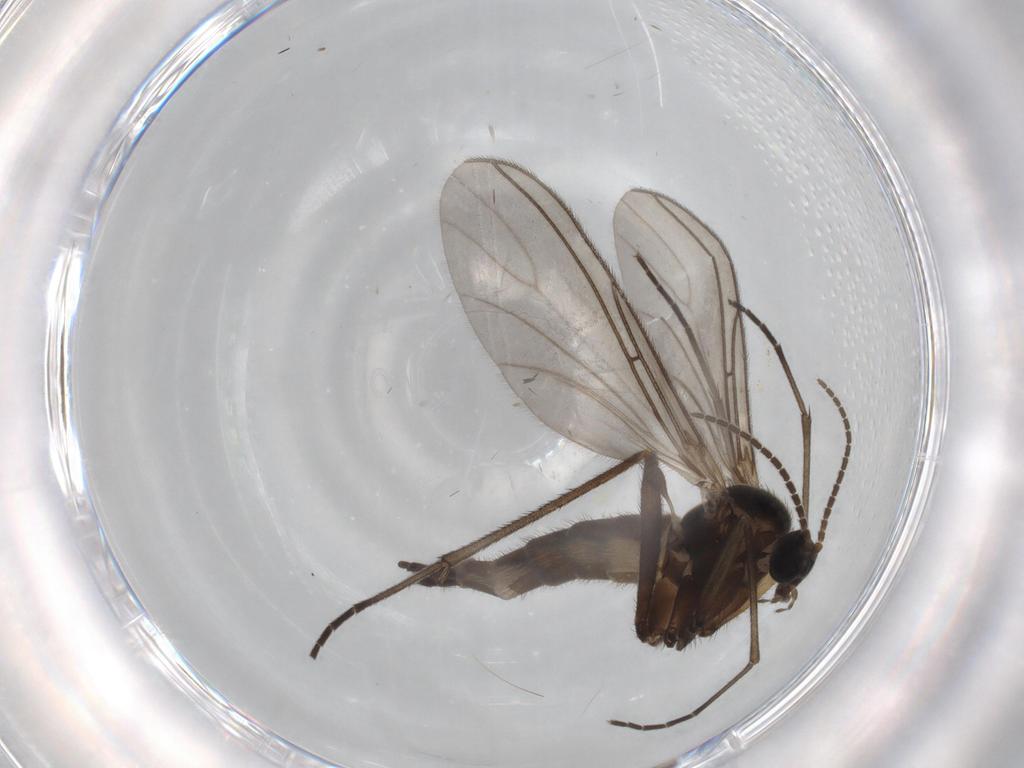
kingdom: Animalia
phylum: Arthropoda
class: Insecta
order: Diptera
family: Sciaridae
